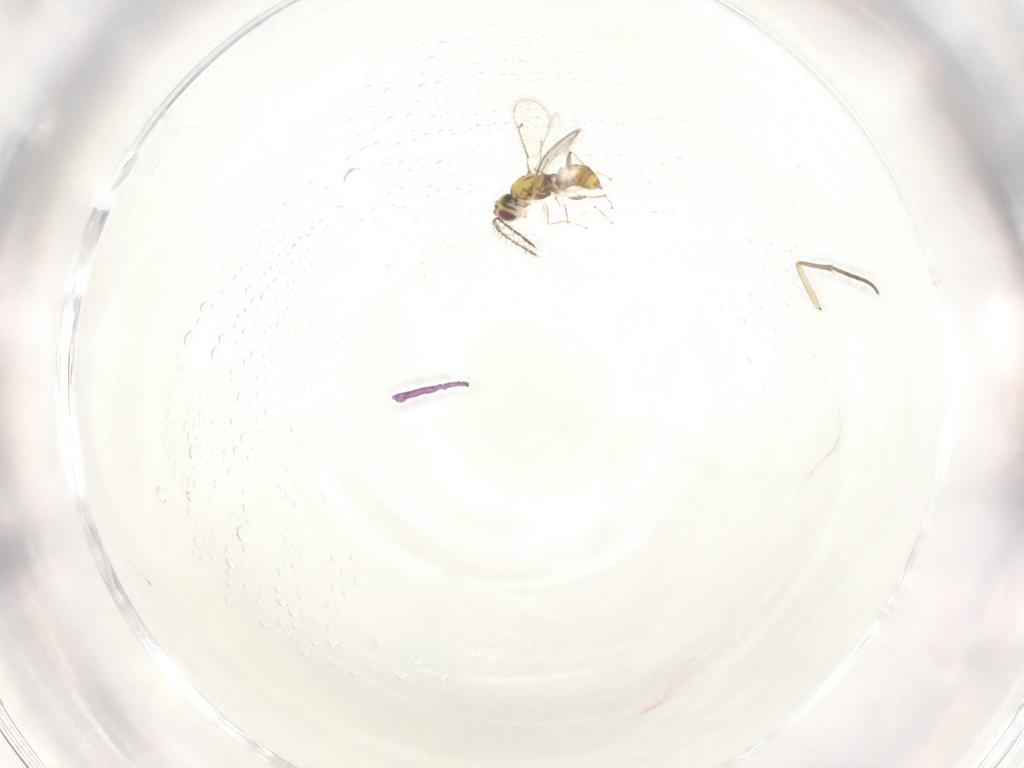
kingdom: Animalia
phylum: Arthropoda
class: Insecta
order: Hymenoptera
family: Eulophidae
